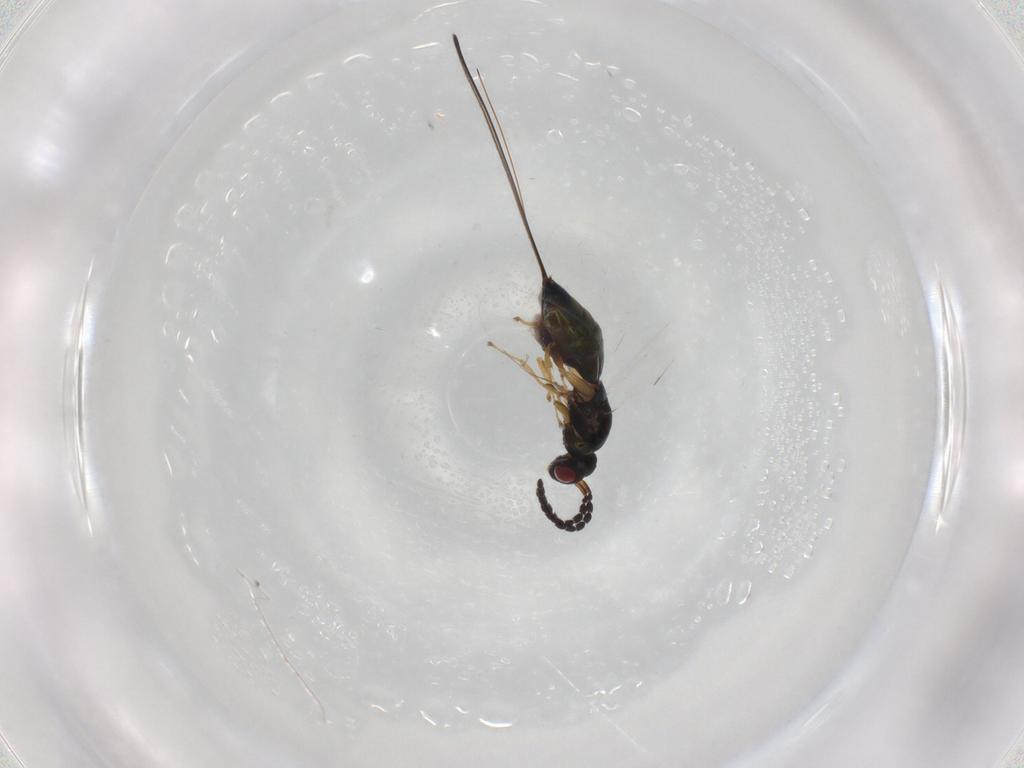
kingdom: Animalia
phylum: Arthropoda
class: Insecta
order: Hymenoptera
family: Agaonidae
